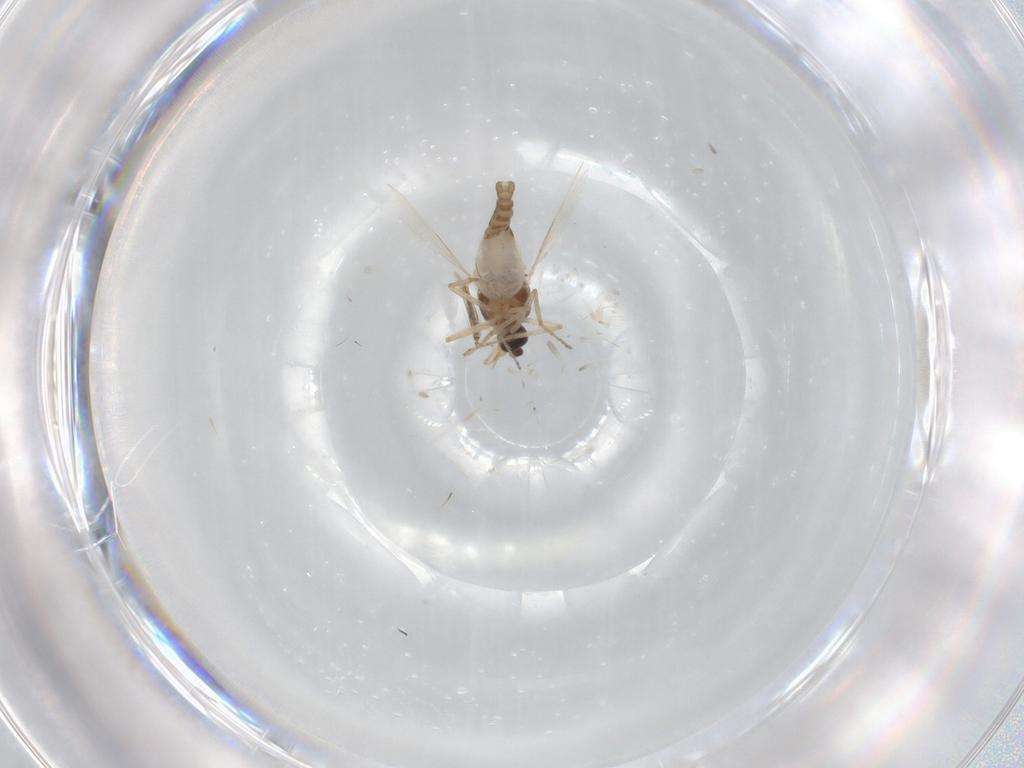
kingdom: Animalia
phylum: Arthropoda
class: Insecta
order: Diptera
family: Ceratopogonidae
